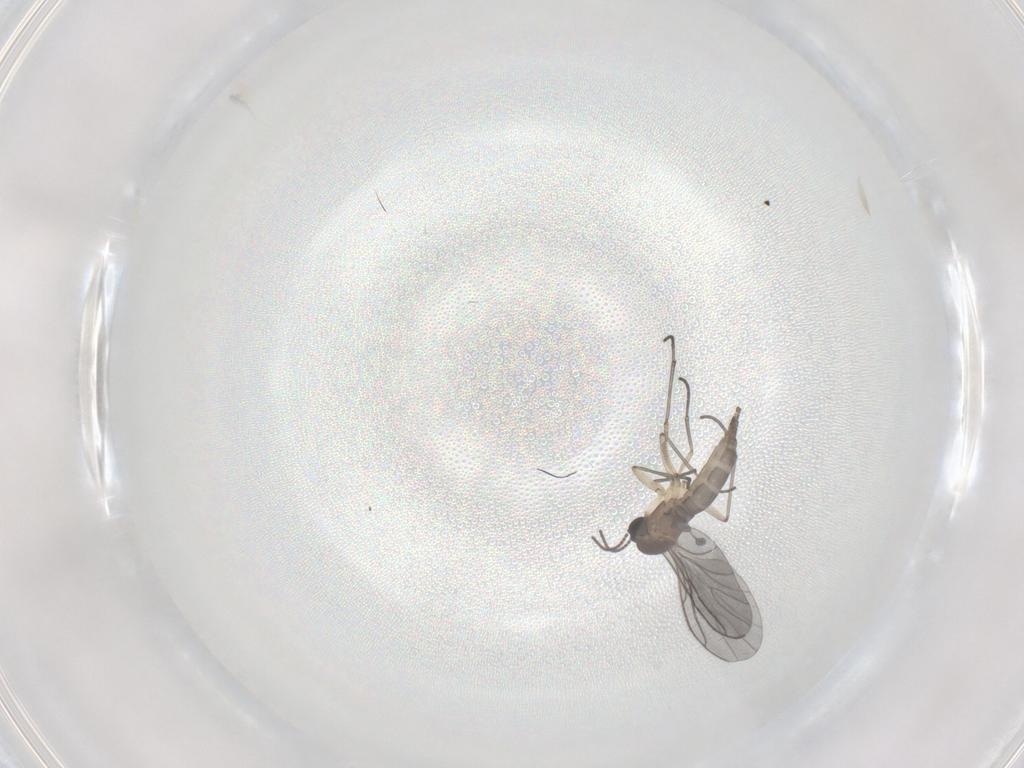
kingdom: Animalia
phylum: Arthropoda
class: Insecta
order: Diptera
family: Sciaridae
